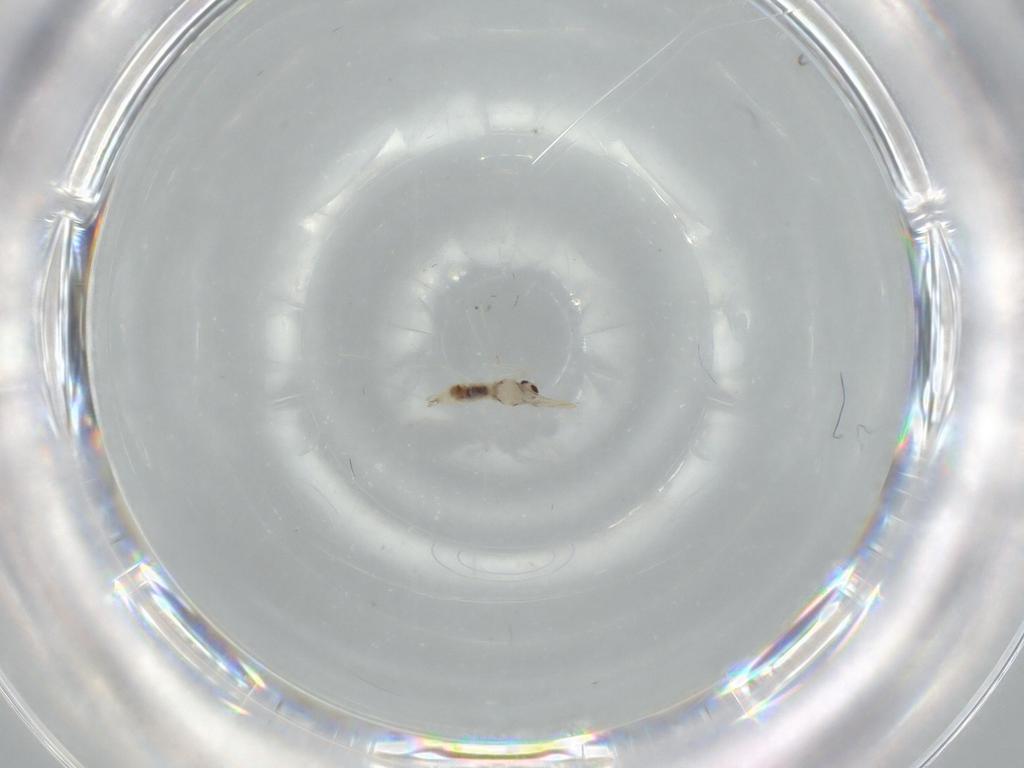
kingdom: Animalia
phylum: Arthropoda
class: Insecta
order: Diptera
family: Cecidomyiidae
